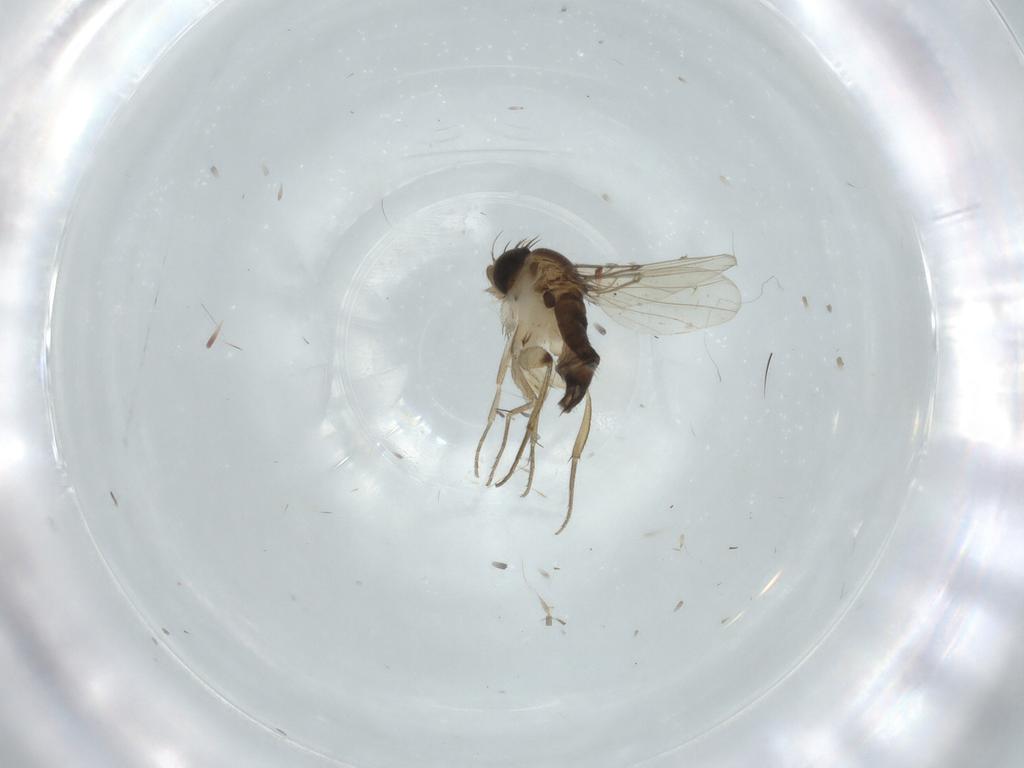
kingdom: Animalia
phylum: Arthropoda
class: Insecta
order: Diptera
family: Phoridae
